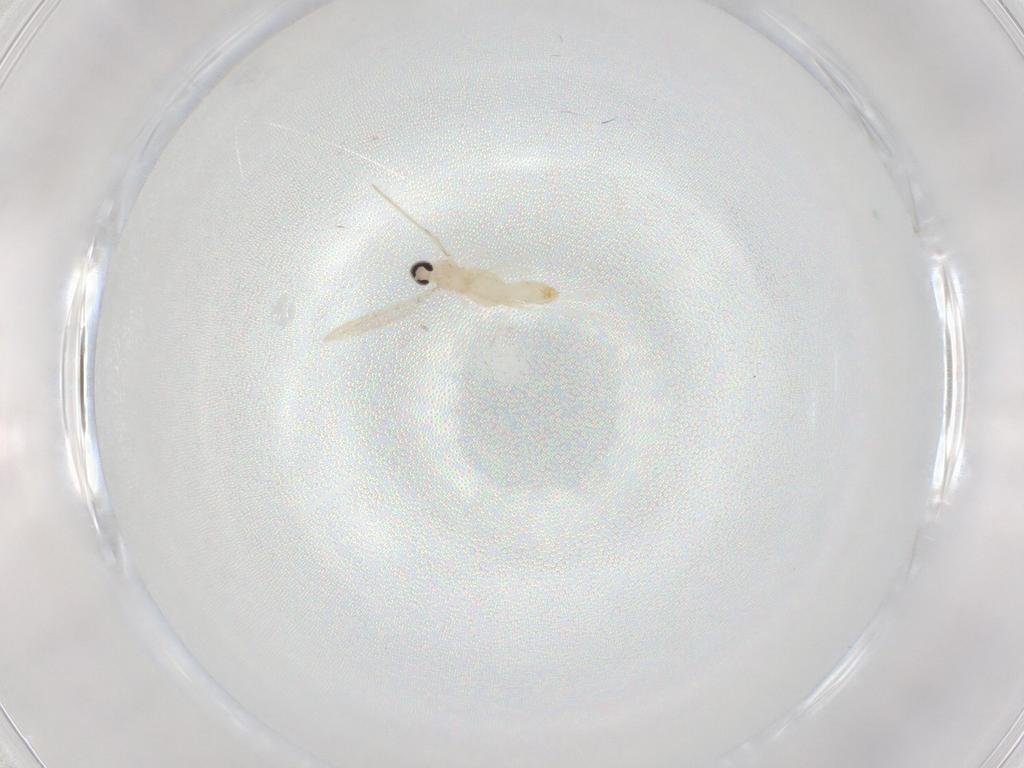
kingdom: Animalia
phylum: Arthropoda
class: Insecta
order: Diptera
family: Cecidomyiidae
